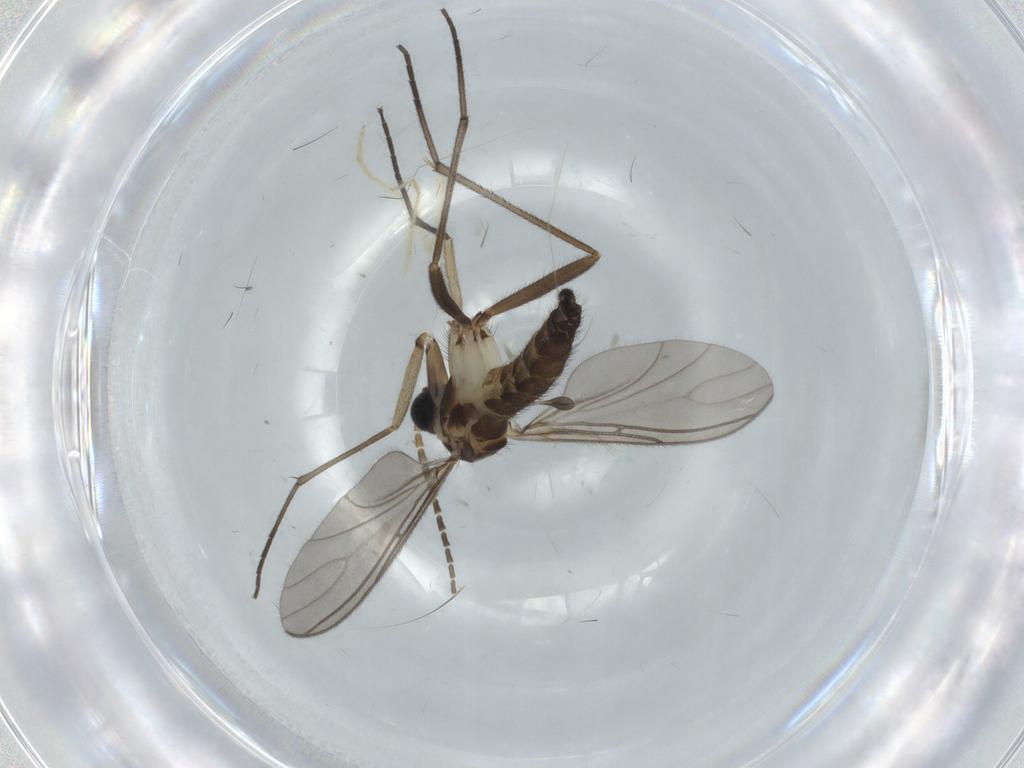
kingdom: Animalia
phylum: Arthropoda
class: Insecta
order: Diptera
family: Sciaridae
